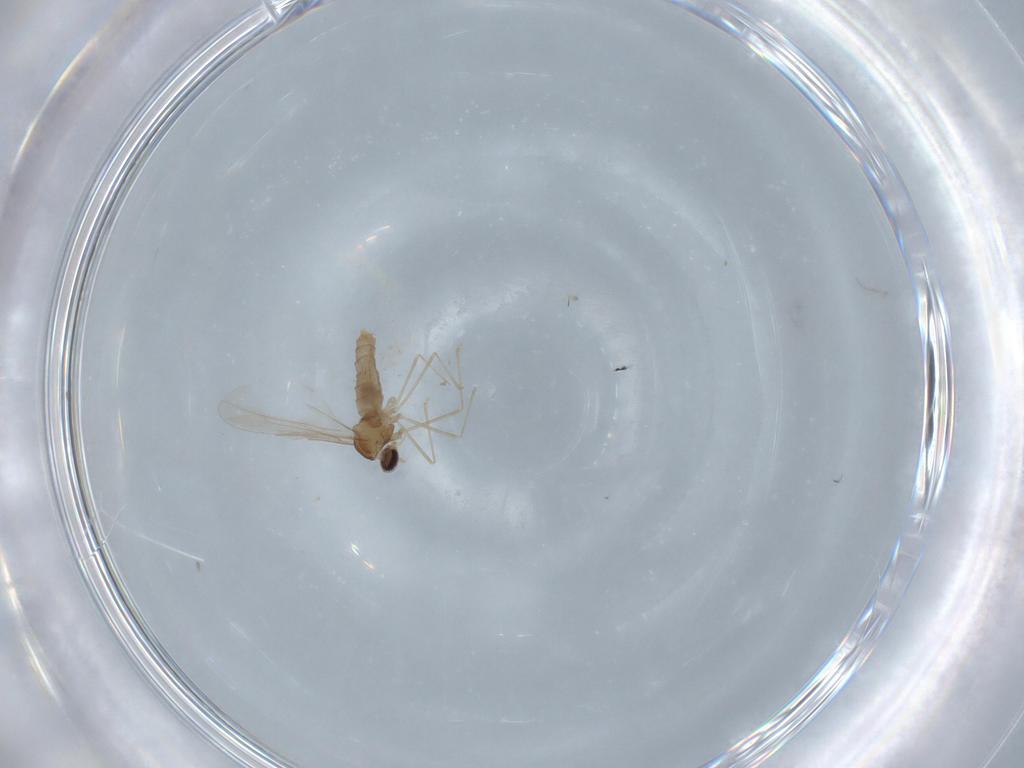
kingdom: Animalia
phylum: Arthropoda
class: Insecta
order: Diptera
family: Cecidomyiidae
